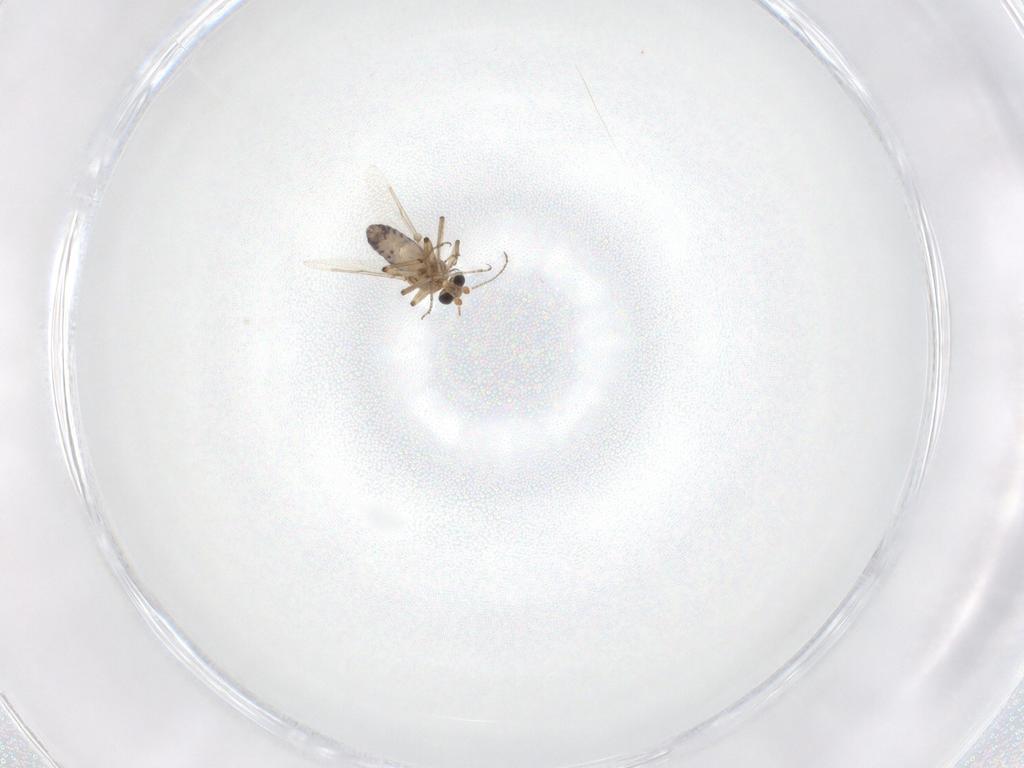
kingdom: Animalia
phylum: Arthropoda
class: Insecta
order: Diptera
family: Ceratopogonidae
